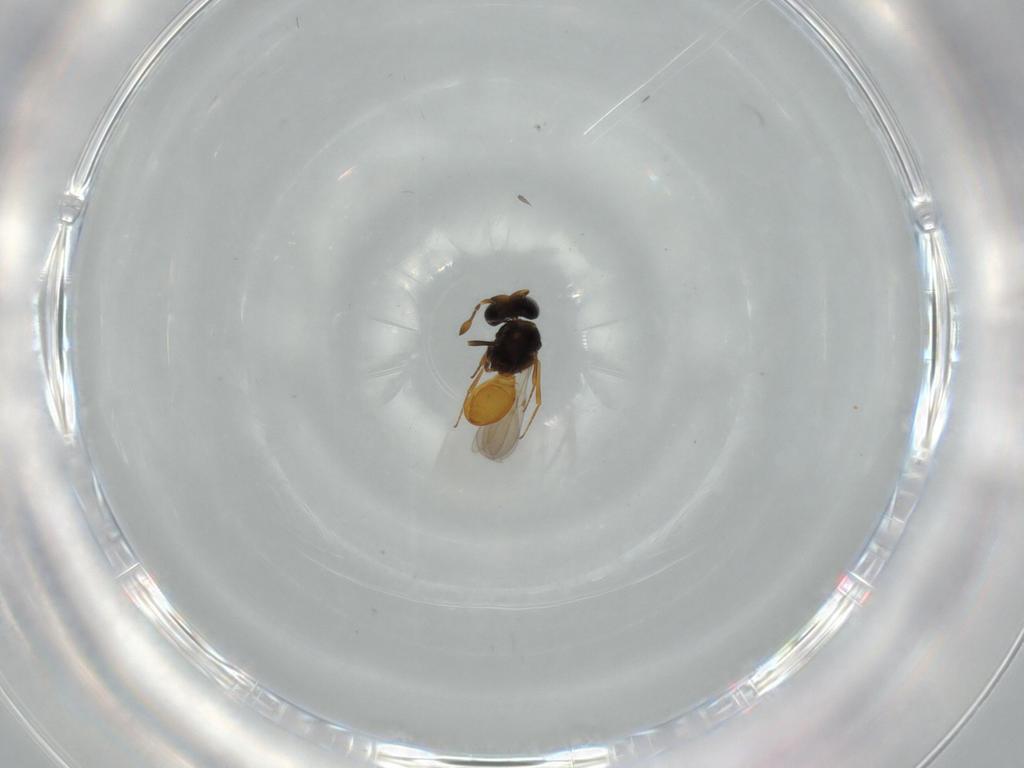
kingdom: Animalia
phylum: Arthropoda
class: Insecta
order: Hymenoptera
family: Scelionidae
